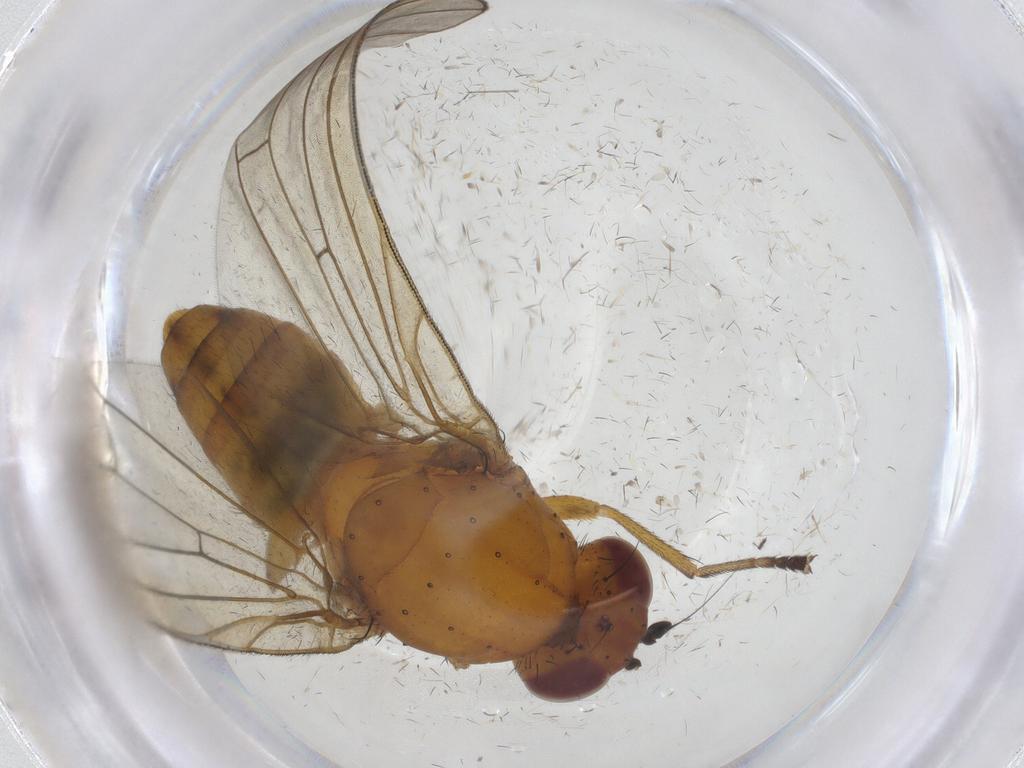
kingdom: Animalia
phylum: Arthropoda
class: Insecta
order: Diptera
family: Lauxaniidae
